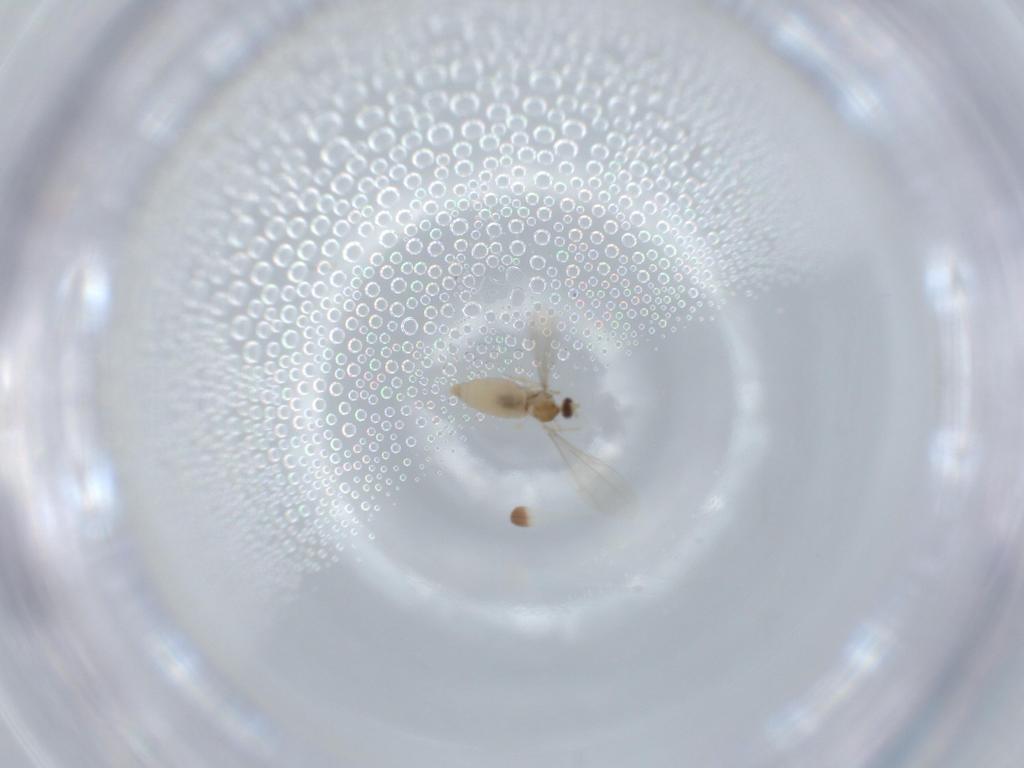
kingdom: Animalia
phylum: Arthropoda
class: Insecta
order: Diptera
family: Cecidomyiidae
